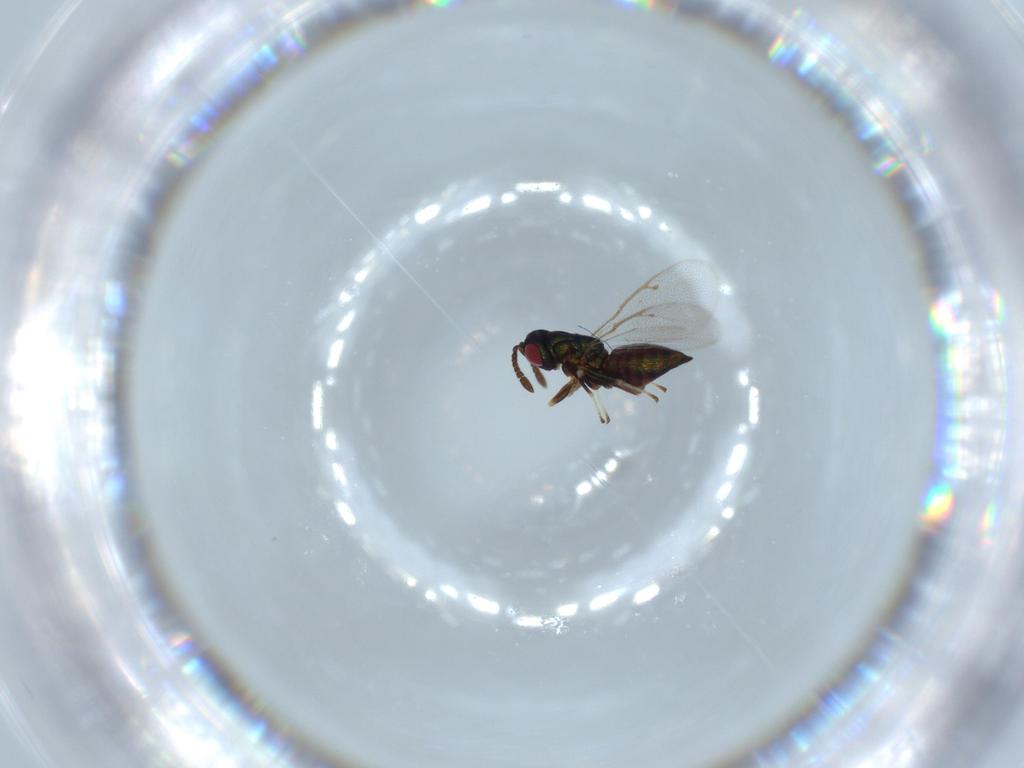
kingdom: Animalia
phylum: Arthropoda
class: Insecta
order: Hymenoptera
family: Pteromalidae
